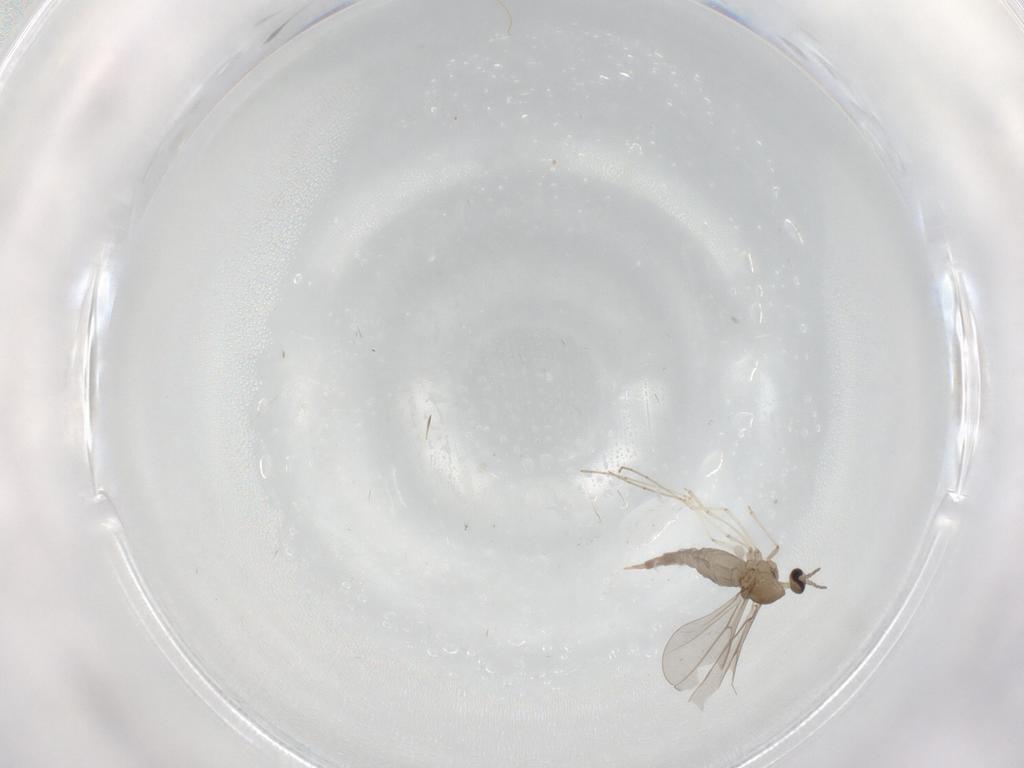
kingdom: Animalia
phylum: Arthropoda
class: Insecta
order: Diptera
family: Cecidomyiidae
